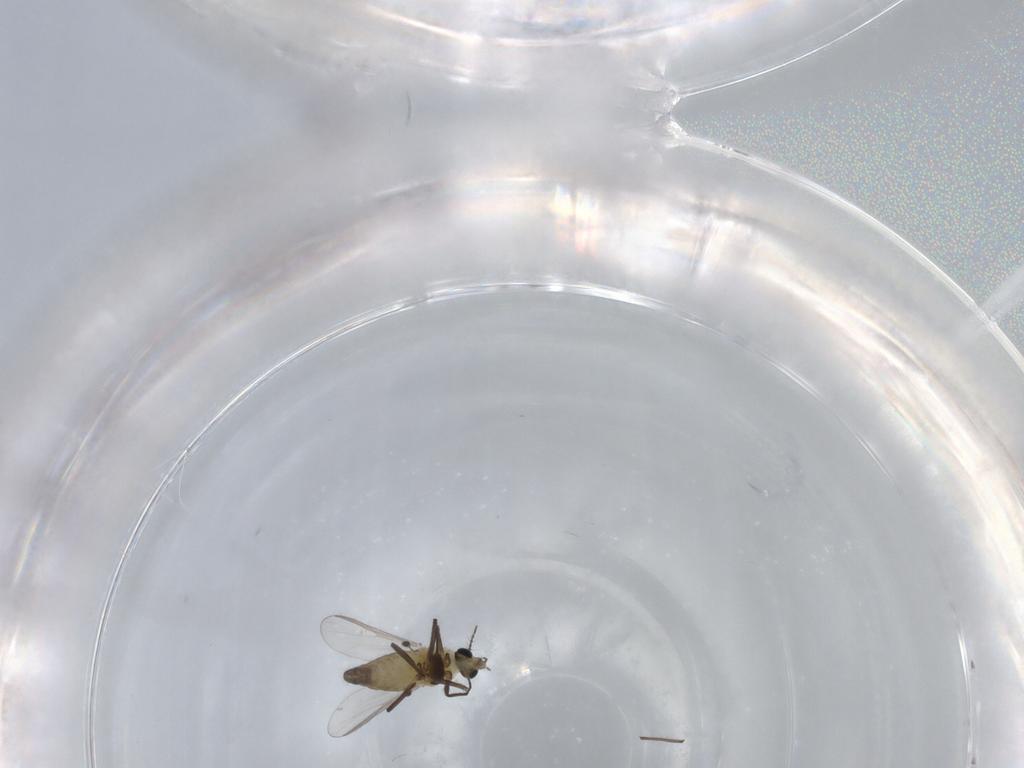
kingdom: Animalia
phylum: Arthropoda
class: Insecta
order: Diptera
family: Chironomidae
